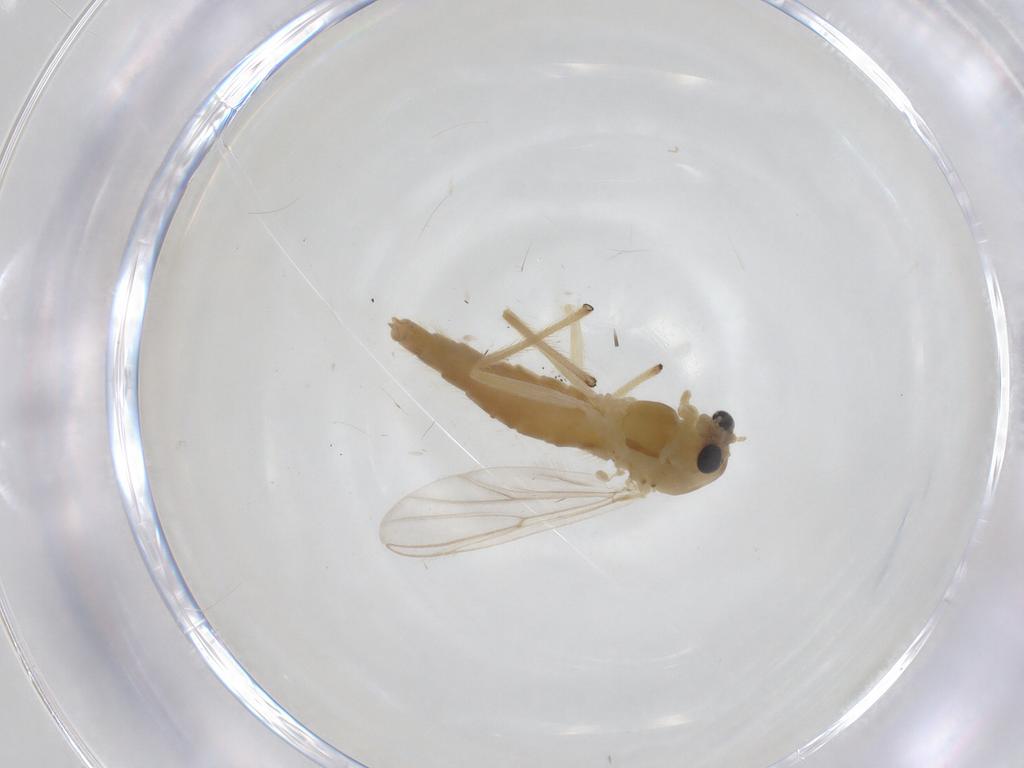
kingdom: Animalia
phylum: Arthropoda
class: Insecta
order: Diptera
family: Chironomidae
